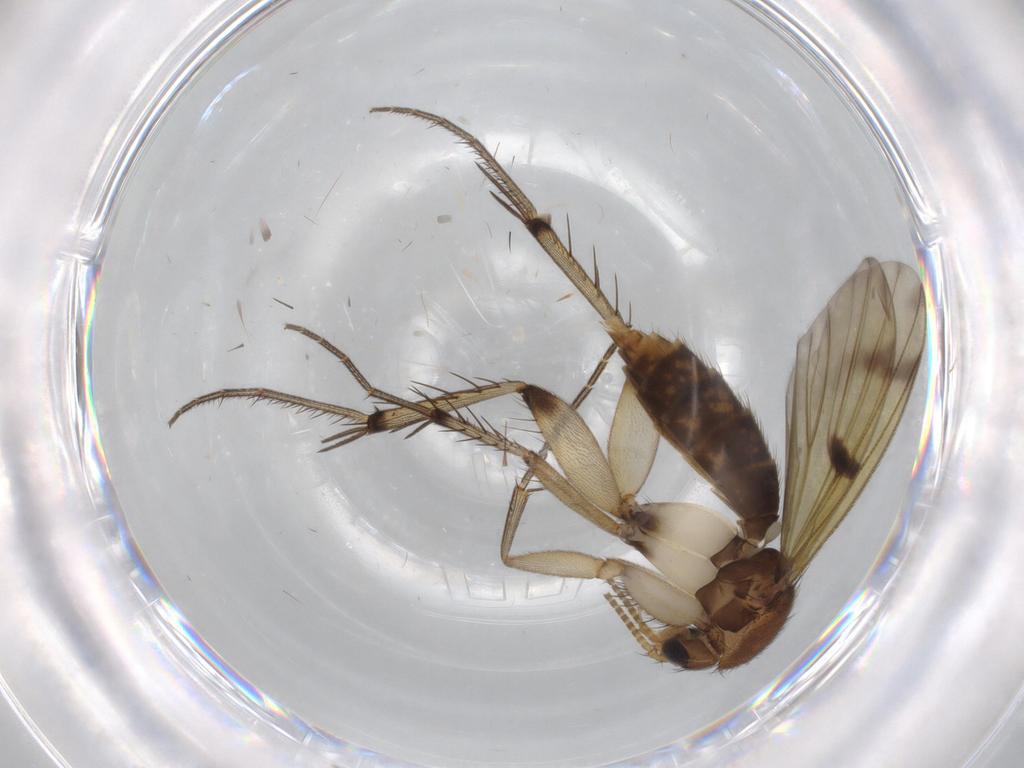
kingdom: Animalia
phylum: Arthropoda
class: Insecta
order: Diptera
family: Mycetophilidae
